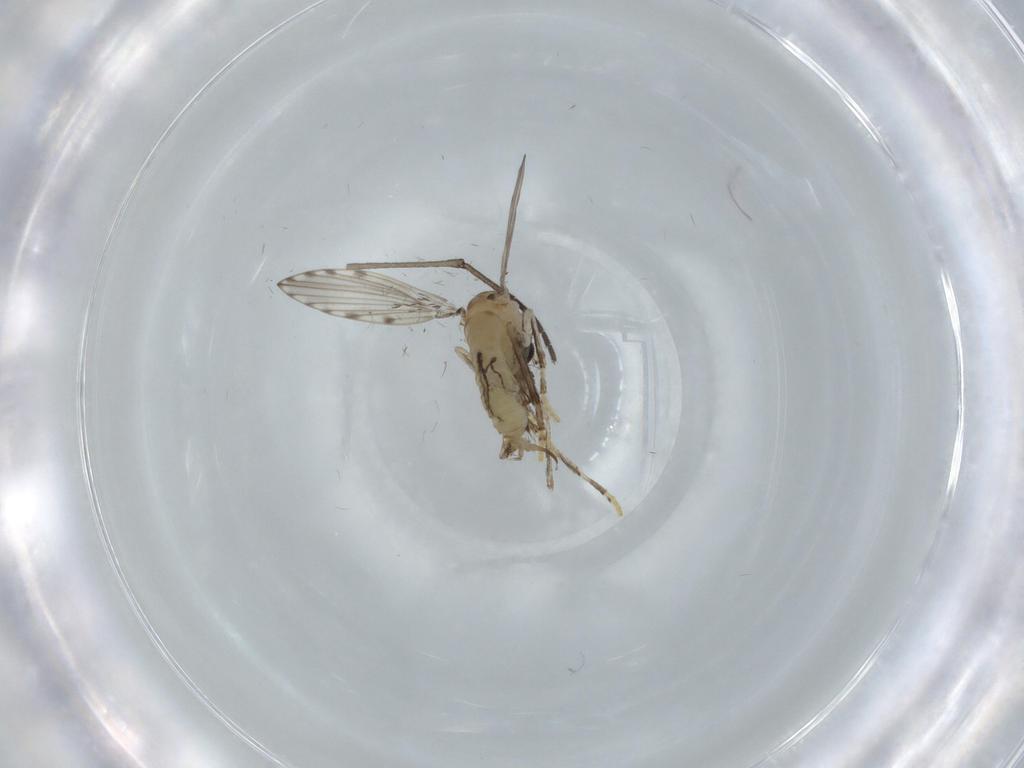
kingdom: Animalia
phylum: Arthropoda
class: Insecta
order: Diptera
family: Psychodidae
